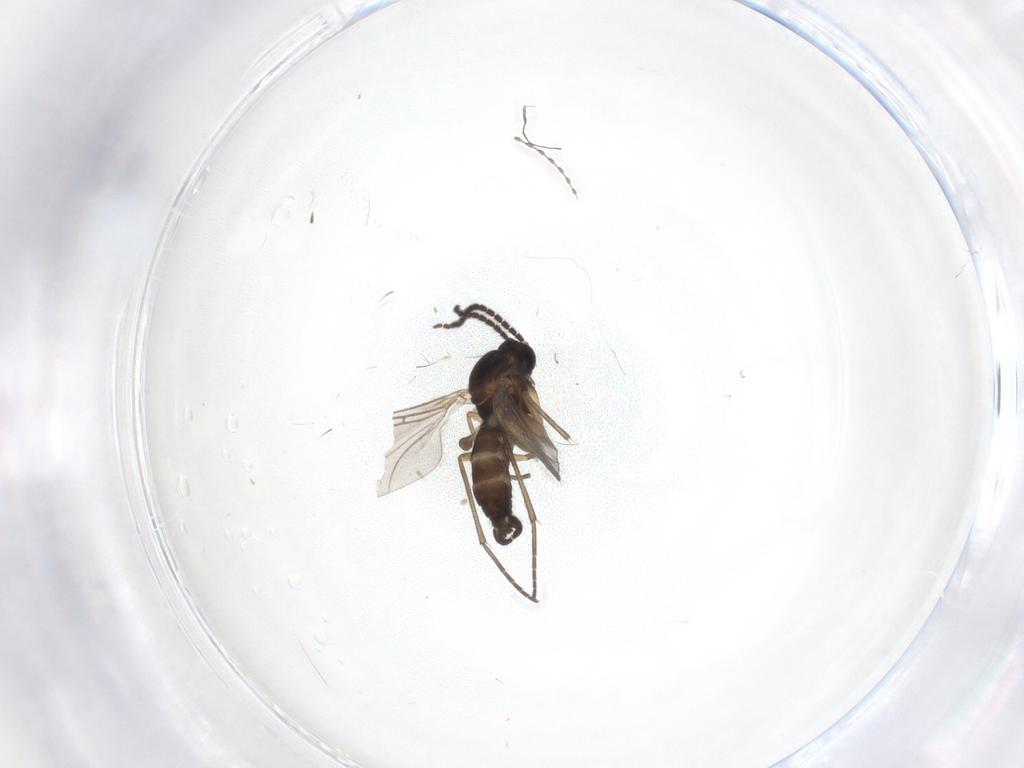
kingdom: Animalia
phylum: Arthropoda
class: Insecta
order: Diptera
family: Sciaridae
